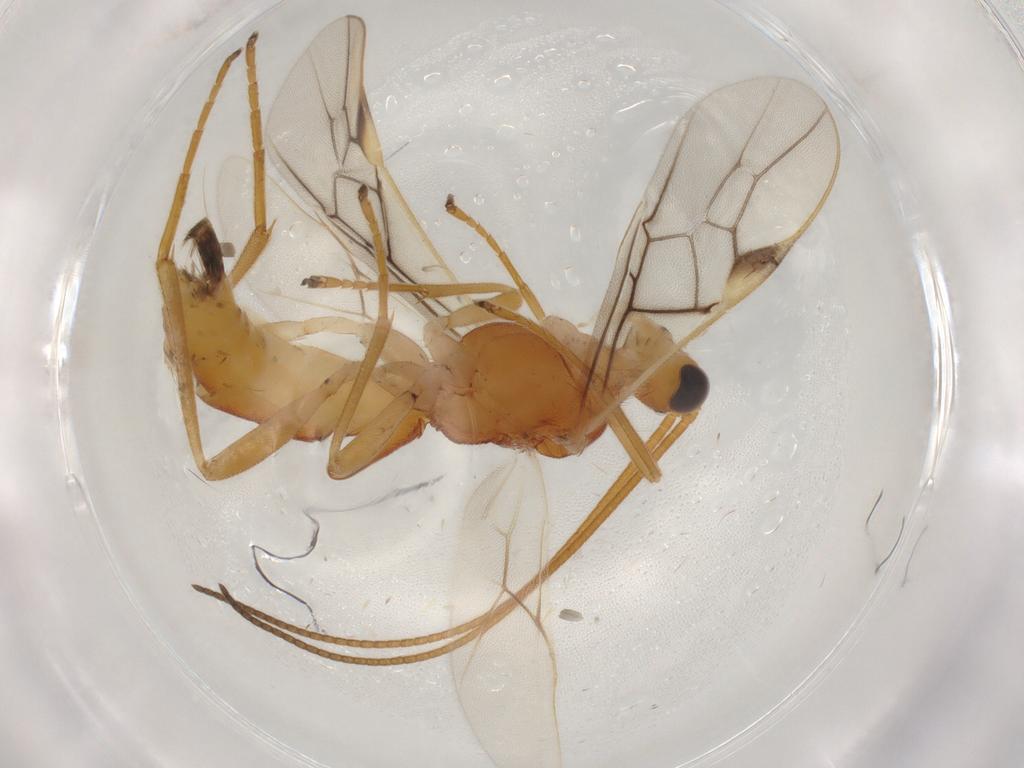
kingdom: Animalia
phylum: Arthropoda
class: Insecta
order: Hymenoptera
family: Braconidae
